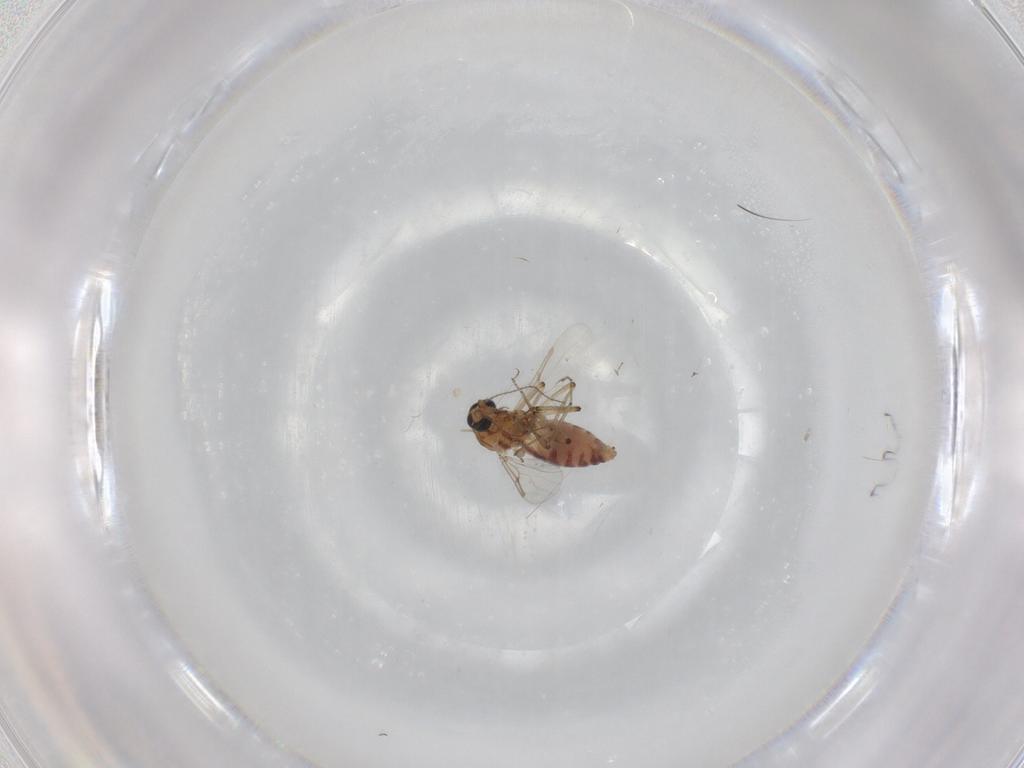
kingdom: Animalia
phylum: Arthropoda
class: Insecta
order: Diptera
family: Ceratopogonidae
